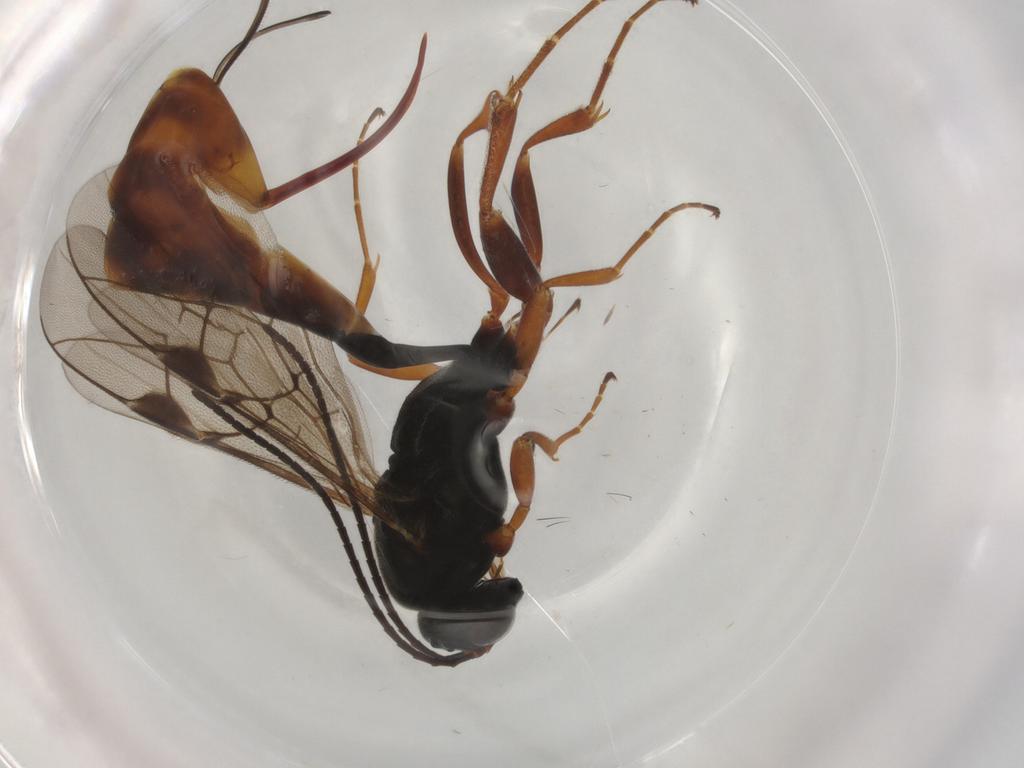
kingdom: Animalia
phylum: Arthropoda
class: Insecta
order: Hymenoptera
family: Ichneumonidae
